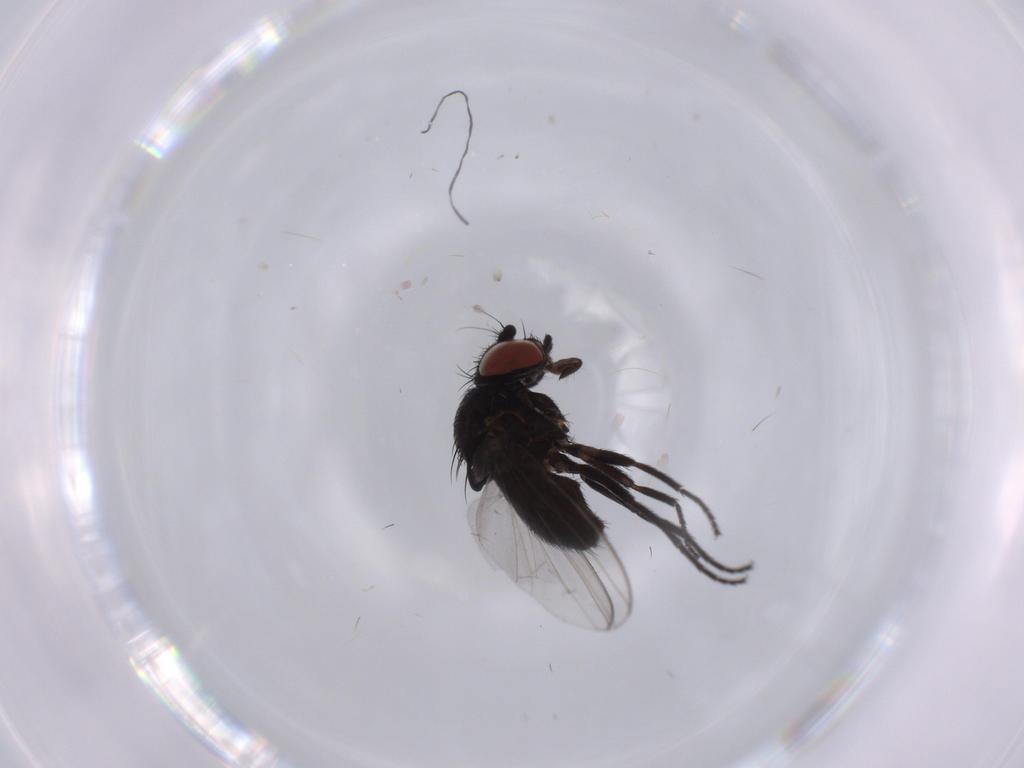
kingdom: Animalia
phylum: Arthropoda
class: Insecta
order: Diptera
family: Milichiidae
